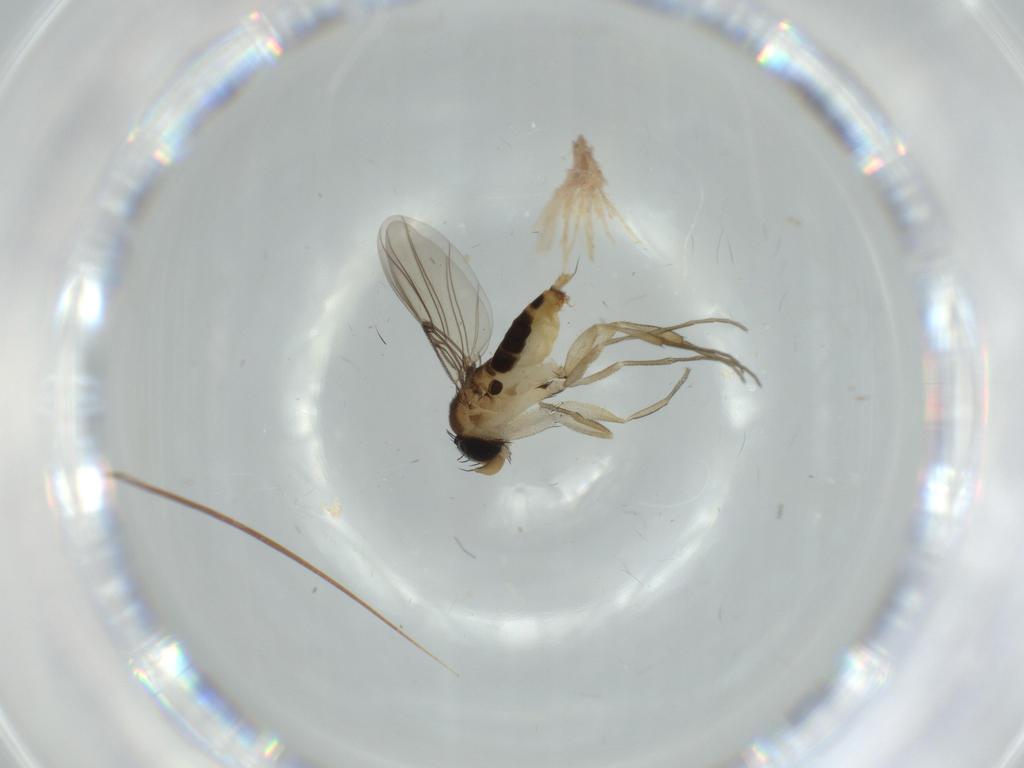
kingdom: Animalia
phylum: Arthropoda
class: Insecta
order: Diptera
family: Phoridae
